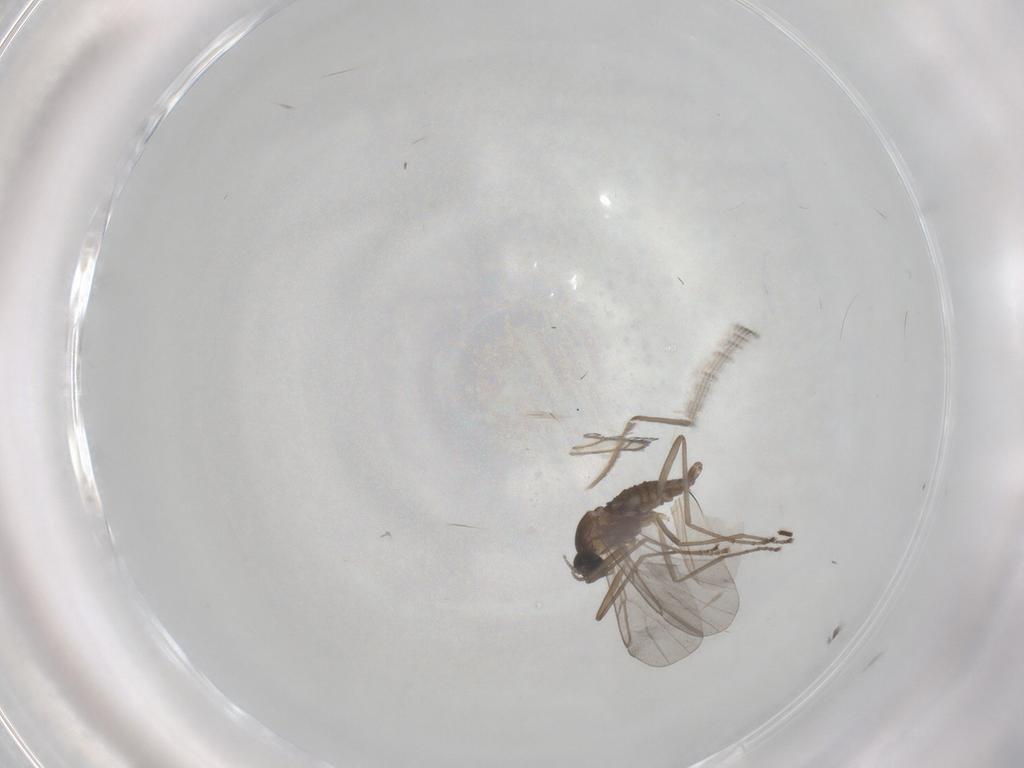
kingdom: Animalia
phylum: Arthropoda
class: Insecta
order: Diptera
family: Sciaridae
